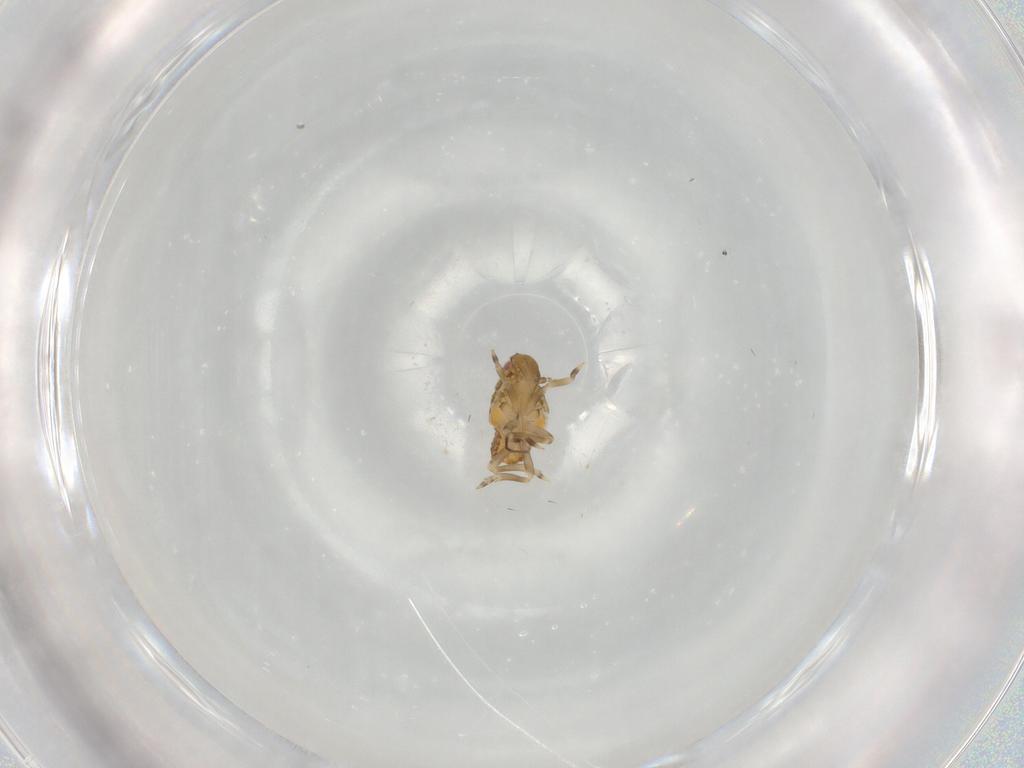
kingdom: Animalia
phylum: Arthropoda
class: Insecta
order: Hemiptera
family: Flatidae
